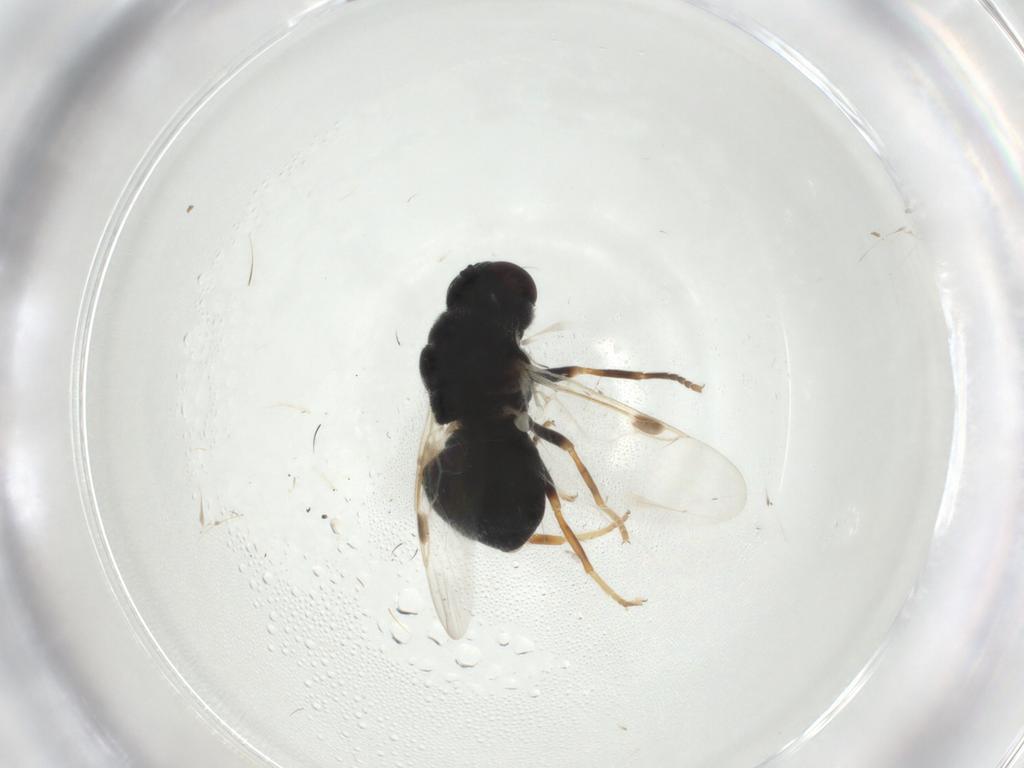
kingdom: Animalia
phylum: Arthropoda
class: Insecta
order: Diptera
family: Stratiomyidae
